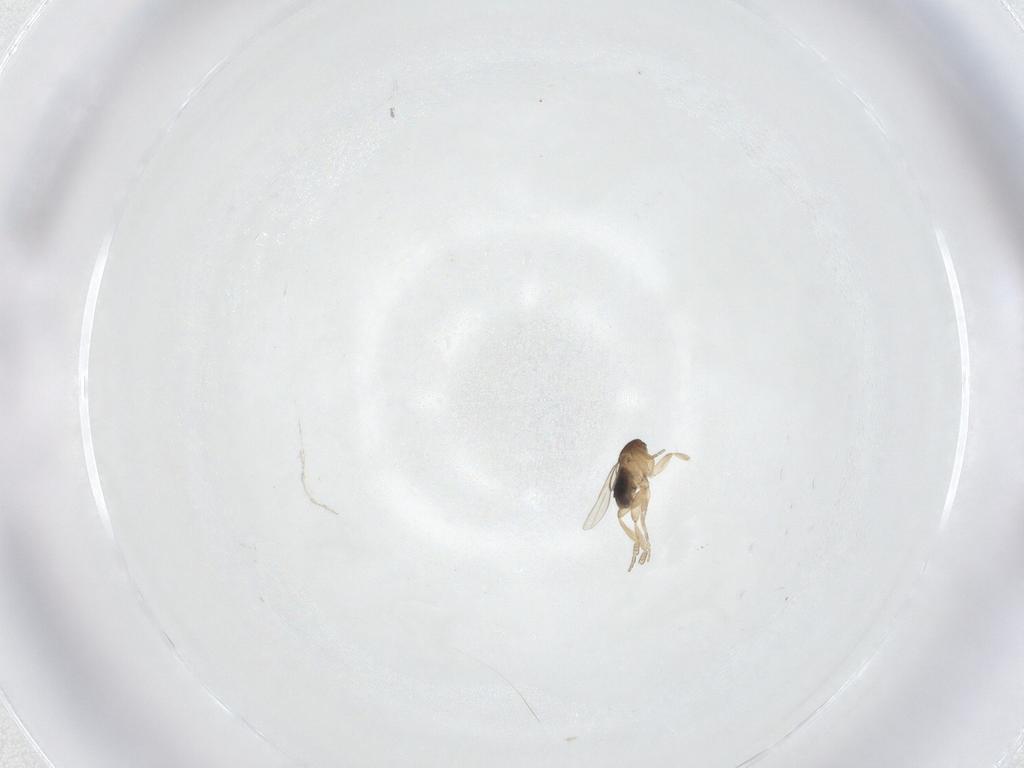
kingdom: Animalia
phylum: Arthropoda
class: Insecta
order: Diptera
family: Phoridae
